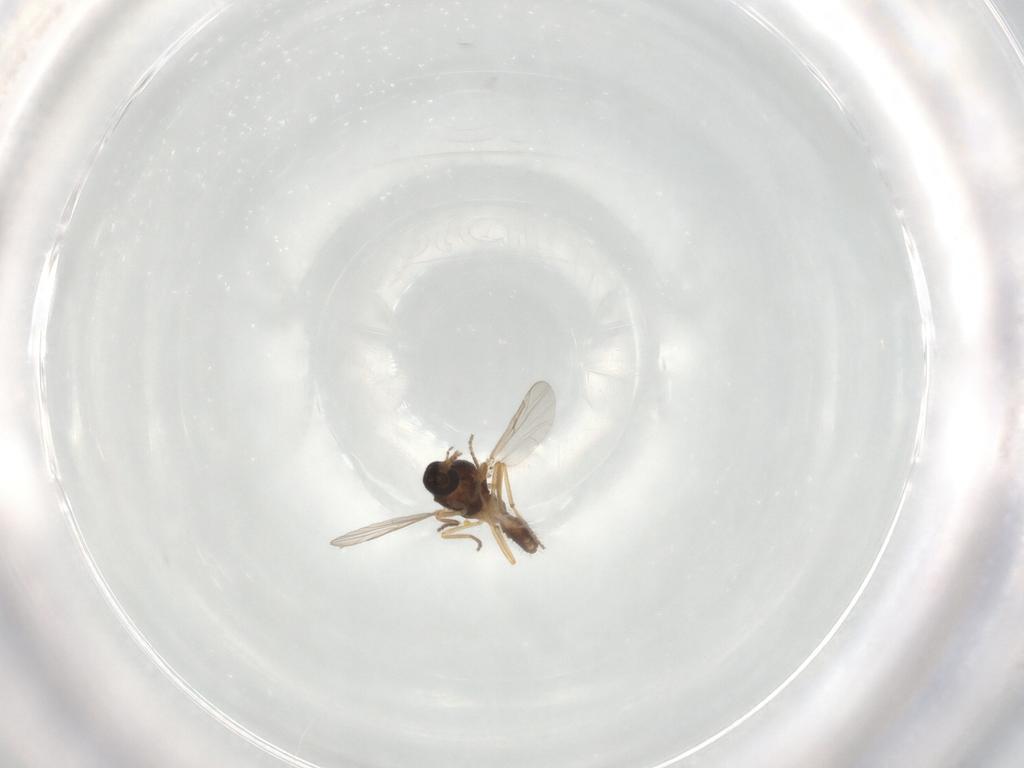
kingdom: Animalia
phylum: Arthropoda
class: Insecta
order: Diptera
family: Ceratopogonidae
